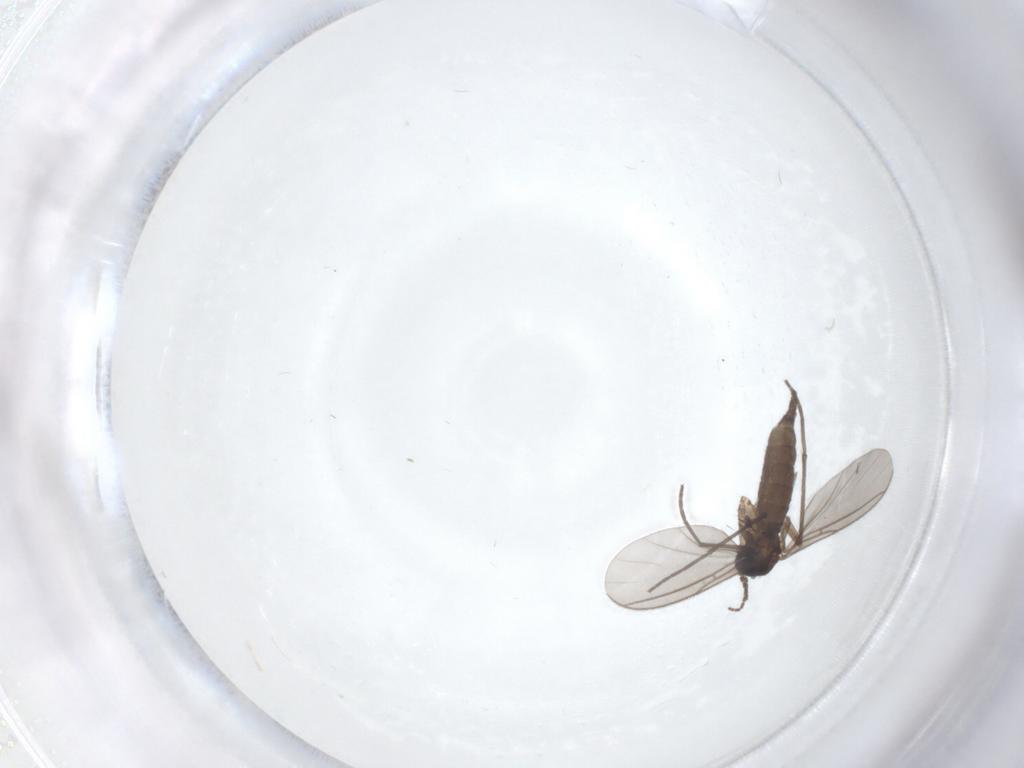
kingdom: Animalia
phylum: Arthropoda
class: Insecta
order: Diptera
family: Sciaridae
